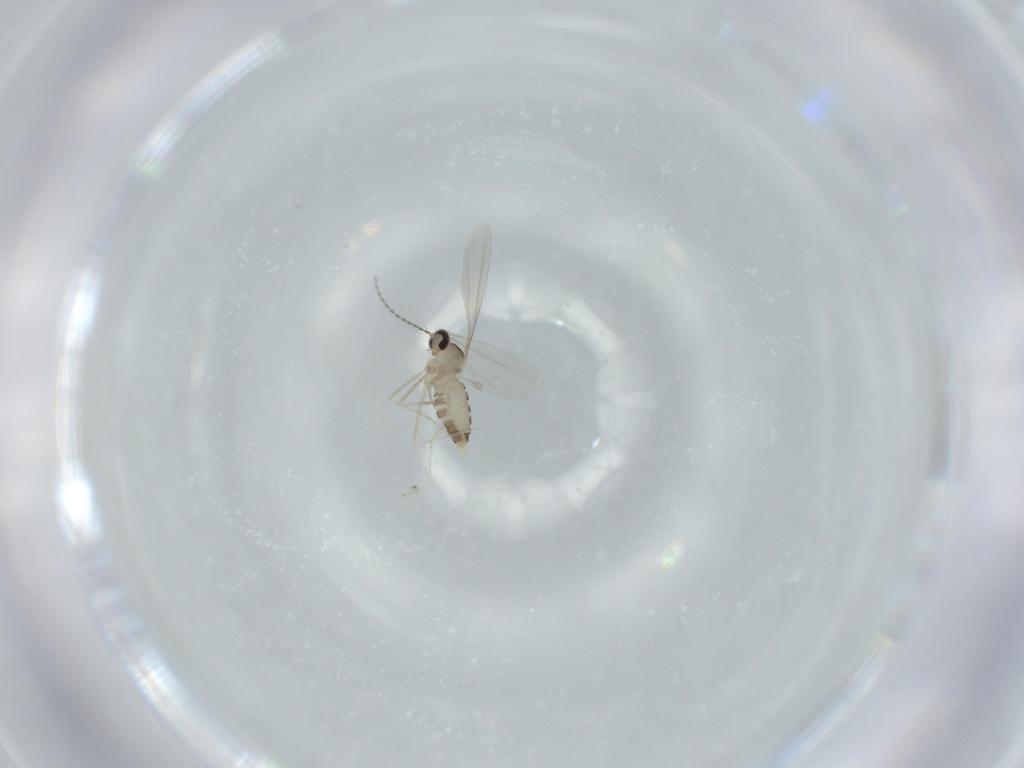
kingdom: Animalia
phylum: Arthropoda
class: Insecta
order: Diptera
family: Cecidomyiidae
